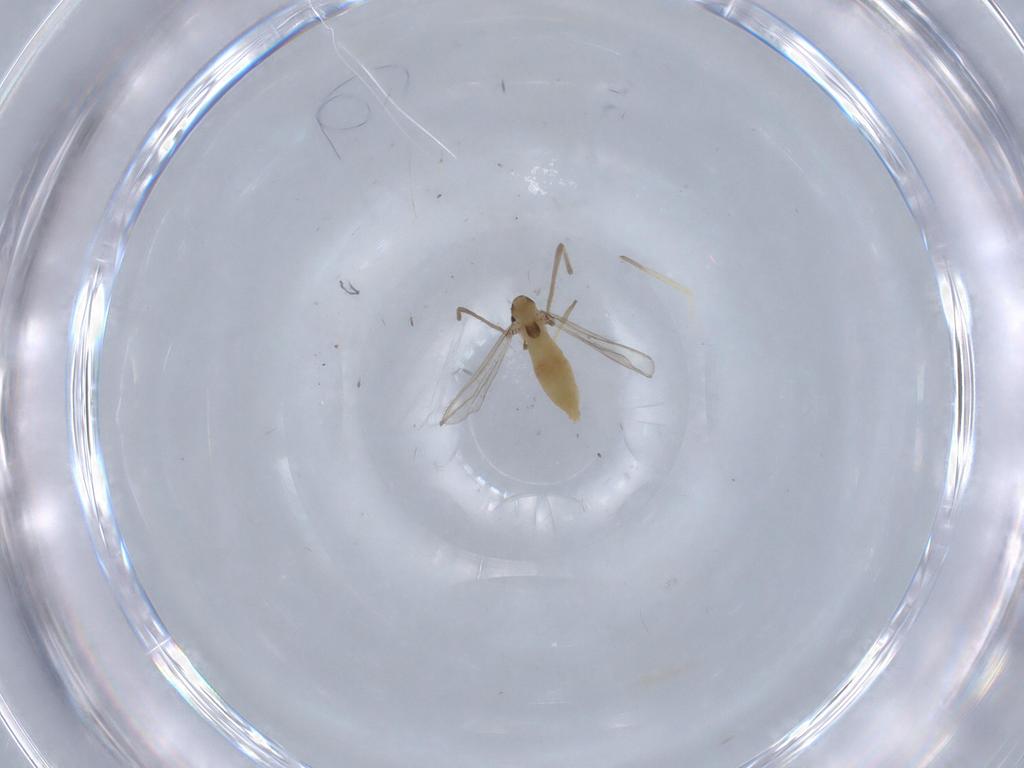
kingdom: Animalia
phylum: Arthropoda
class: Insecta
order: Diptera
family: Chironomidae
